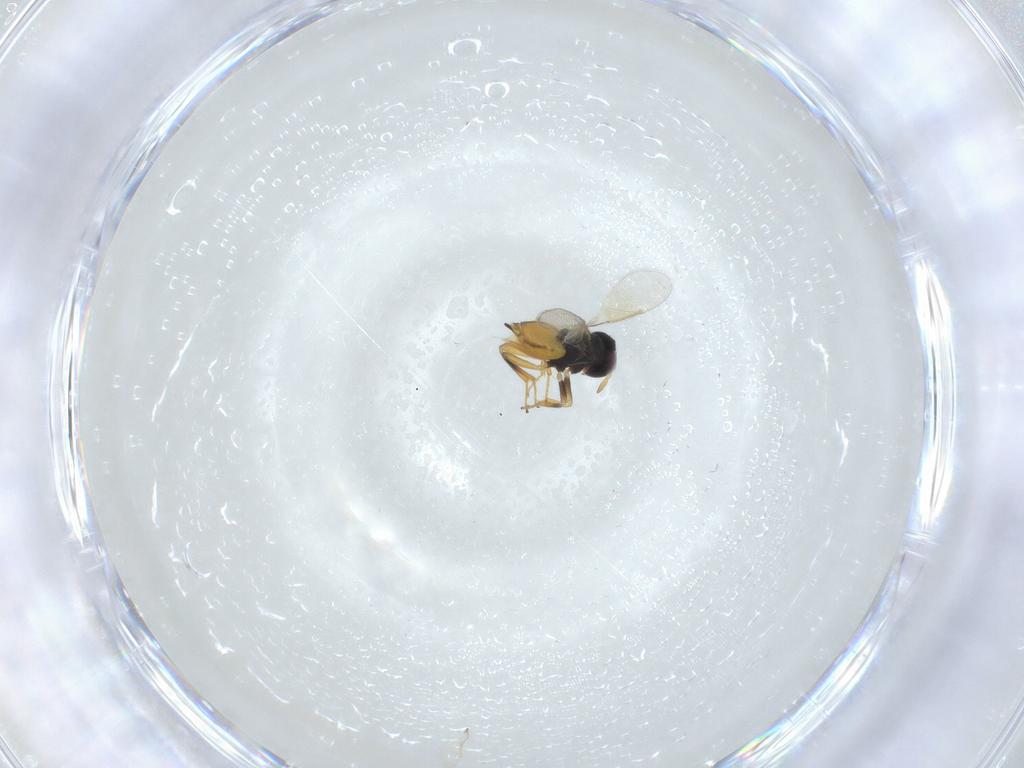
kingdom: Animalia
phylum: Arthropoda
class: Insecta
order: Hymenoptera
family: Aphelinidae
